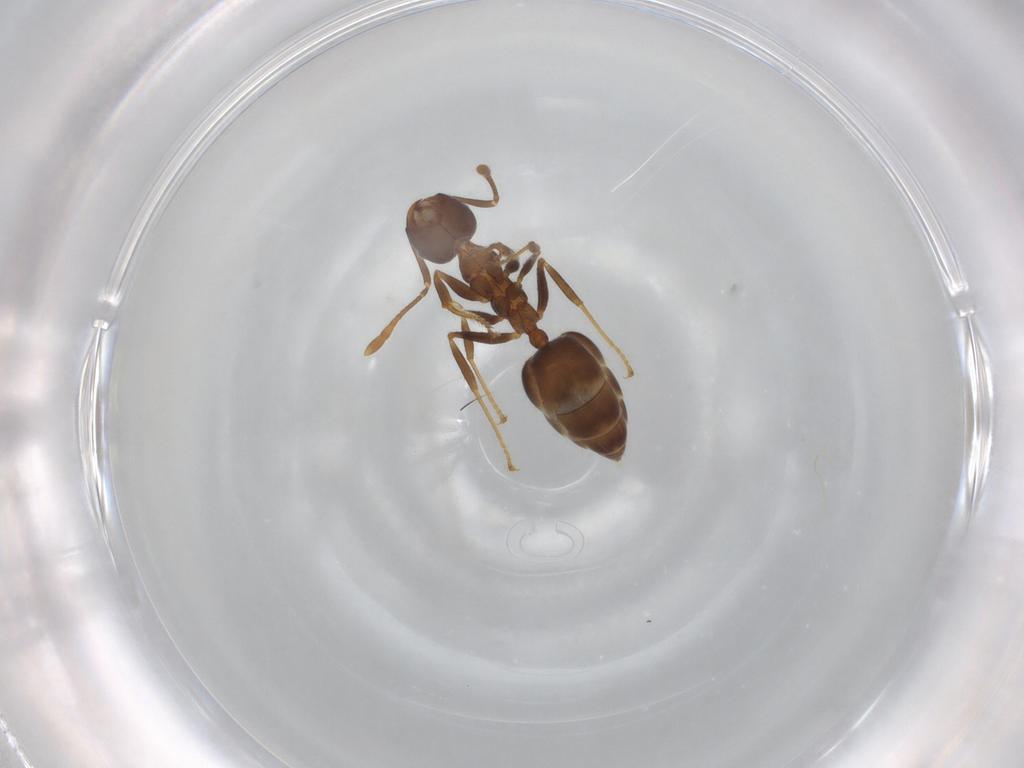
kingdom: Animalia
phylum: Arthropoda
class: Insecta
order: Hymenoptera
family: Formicidae
